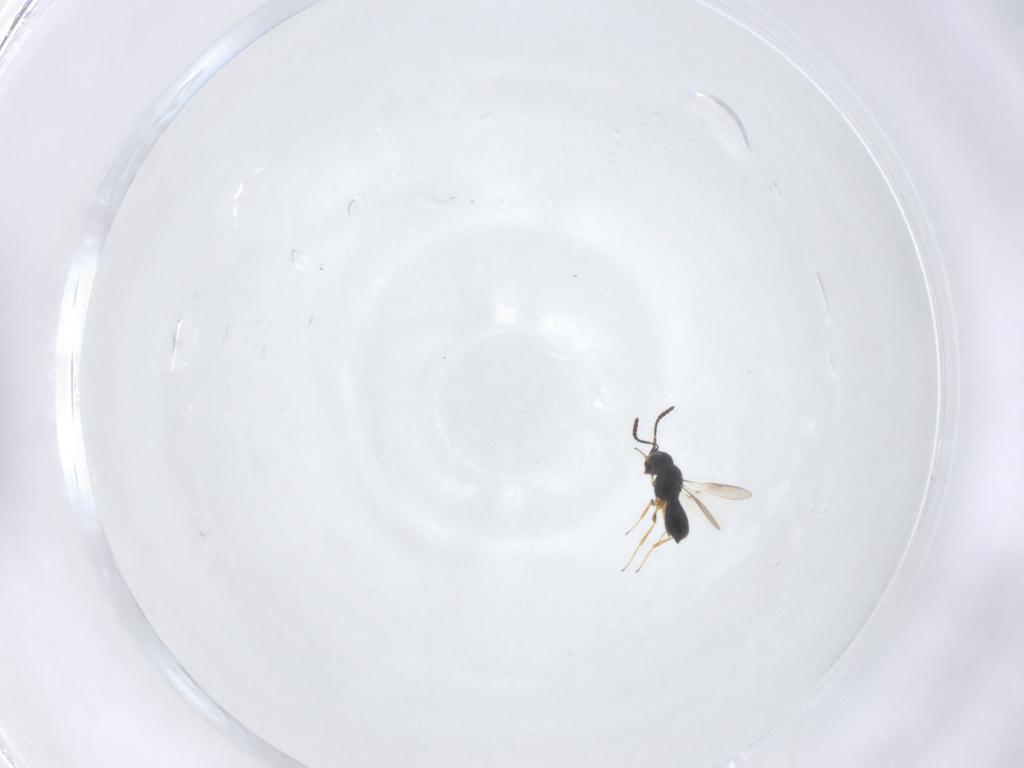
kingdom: Animalia
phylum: Arthropoda
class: Insecta
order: Hymenoptera
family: Scelionidae
